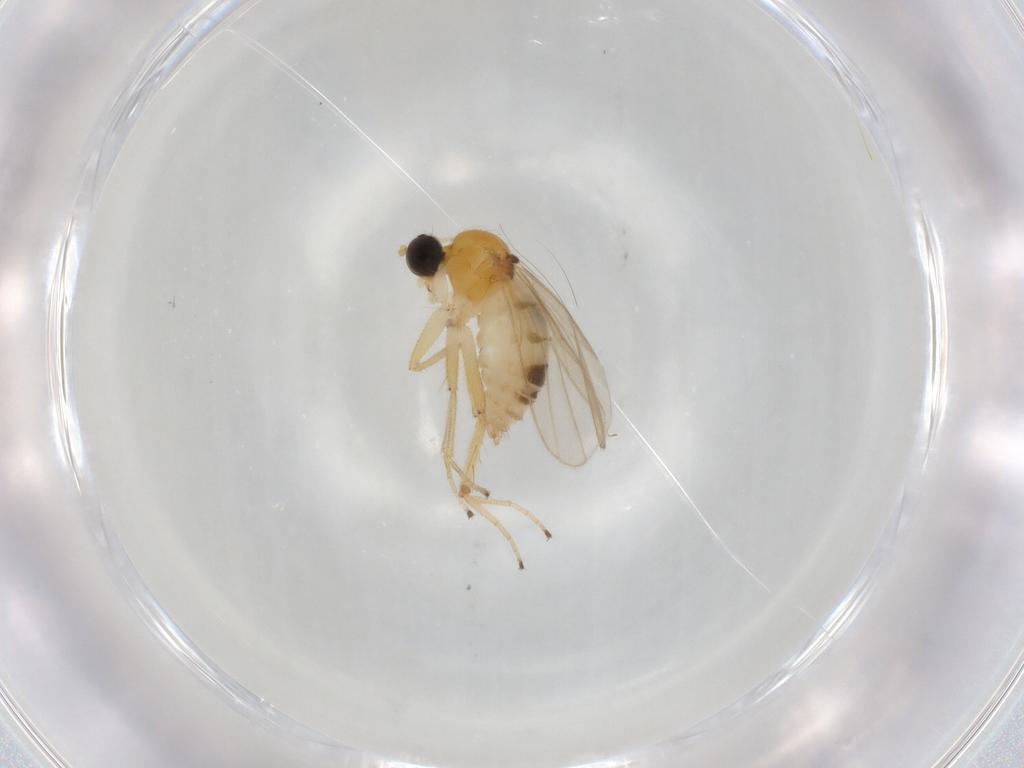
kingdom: Animalia
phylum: Arthropoda
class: Insecta
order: Diptera
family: Hybotidae
